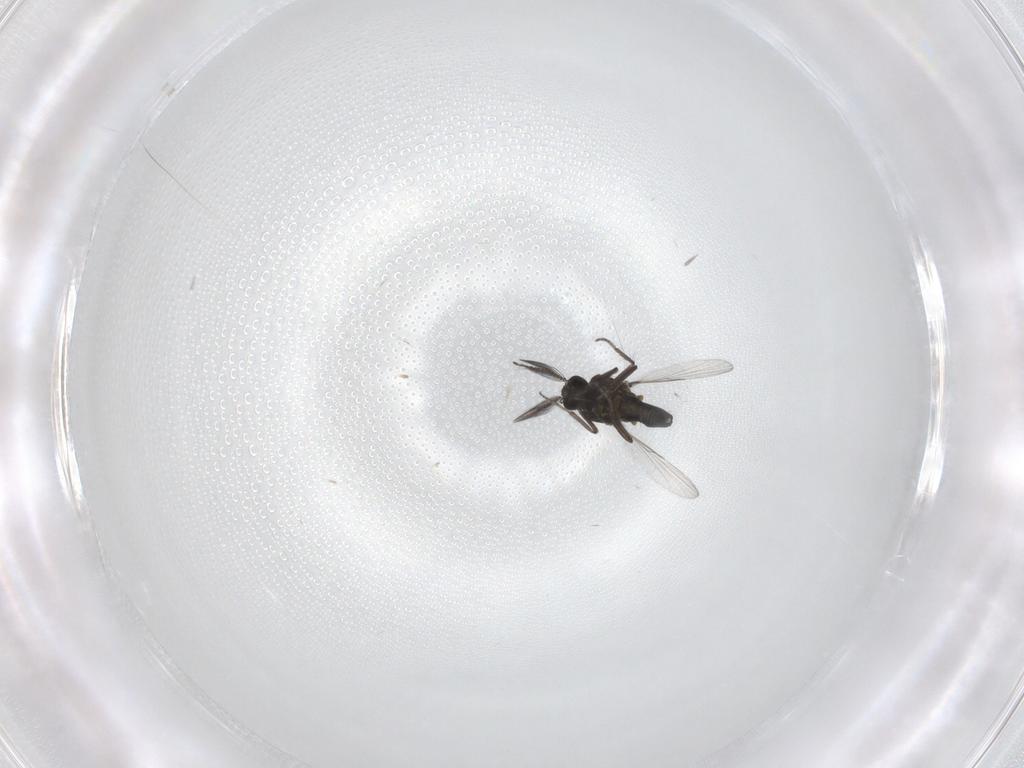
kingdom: Animalia
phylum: Arthropoda
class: Insecta
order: Diptera
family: Ceratopogonidae
